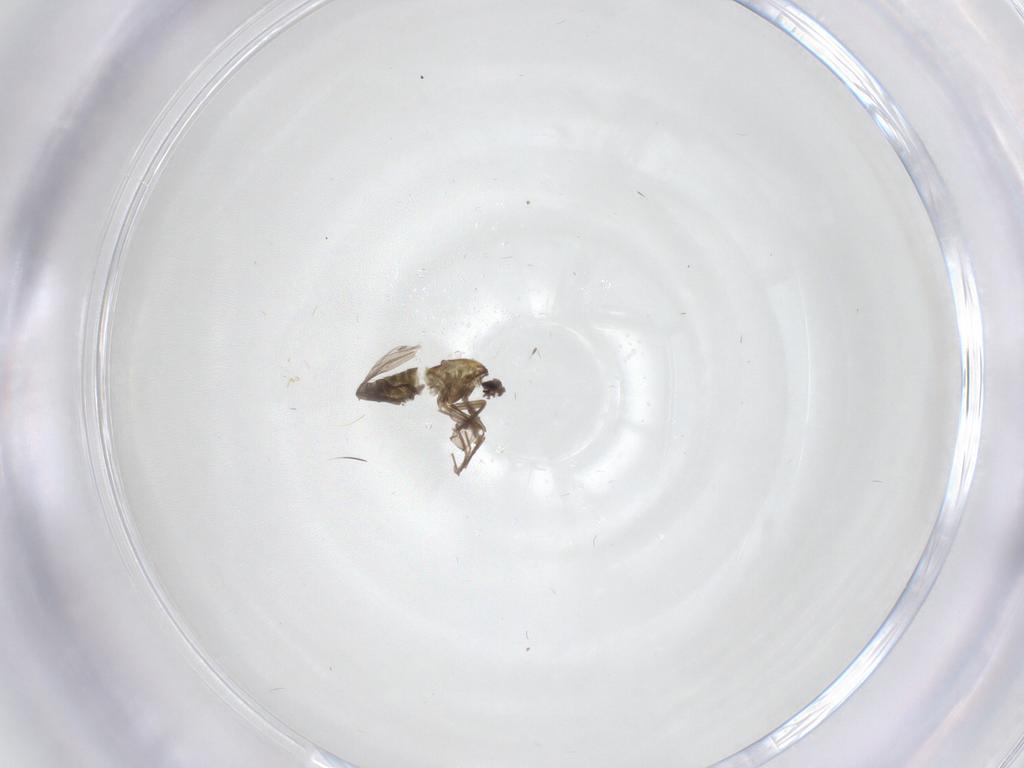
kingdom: Animalia
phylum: Arthropoda
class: Insecta
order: Diptera
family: Chironomidae
